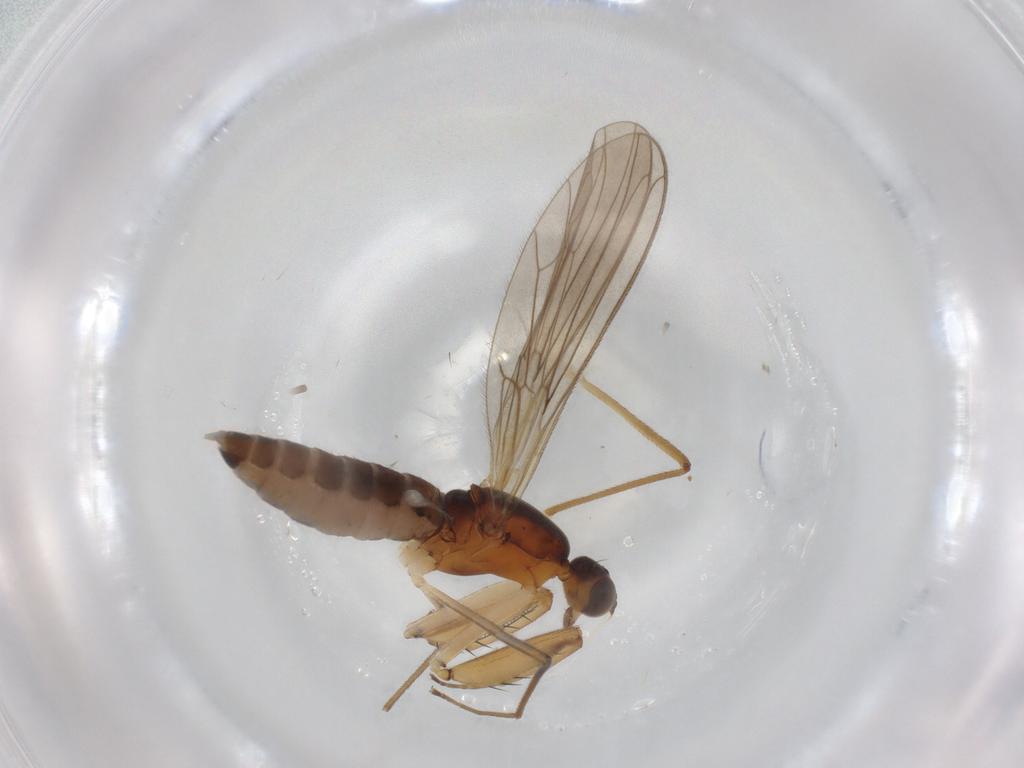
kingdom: Animalia
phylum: Arthropoda
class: Insecta
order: Diptera
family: Empididae
